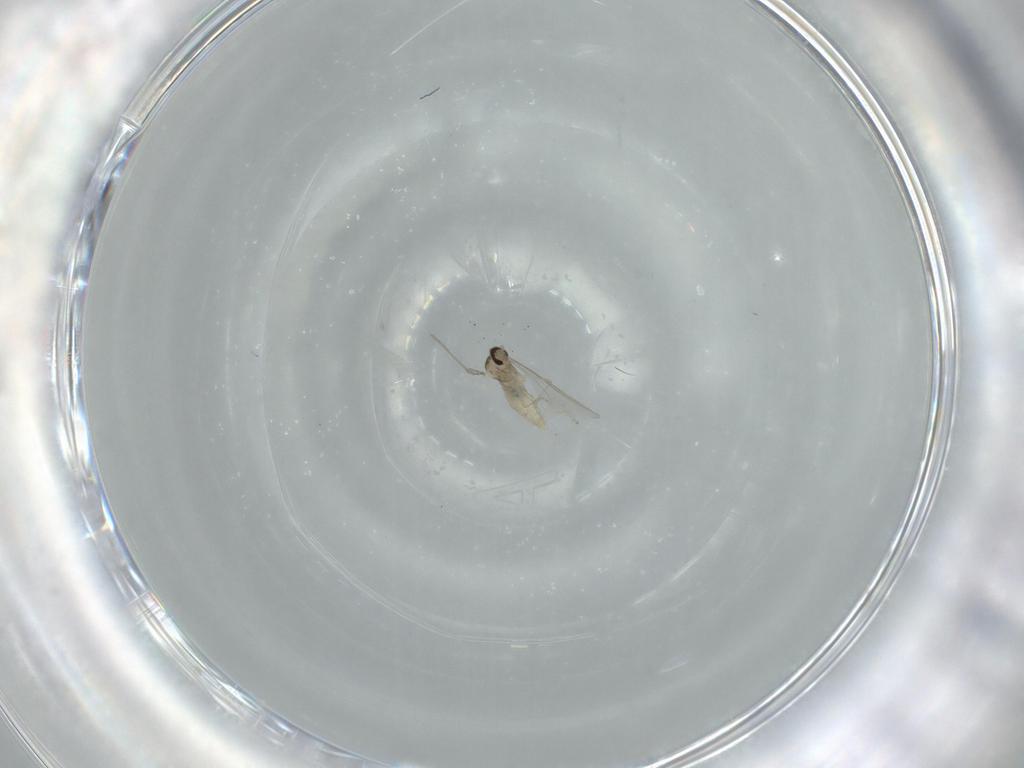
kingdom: Animalia
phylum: Arthropoda
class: Insecta
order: Diptera
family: Cecidomyiidae
